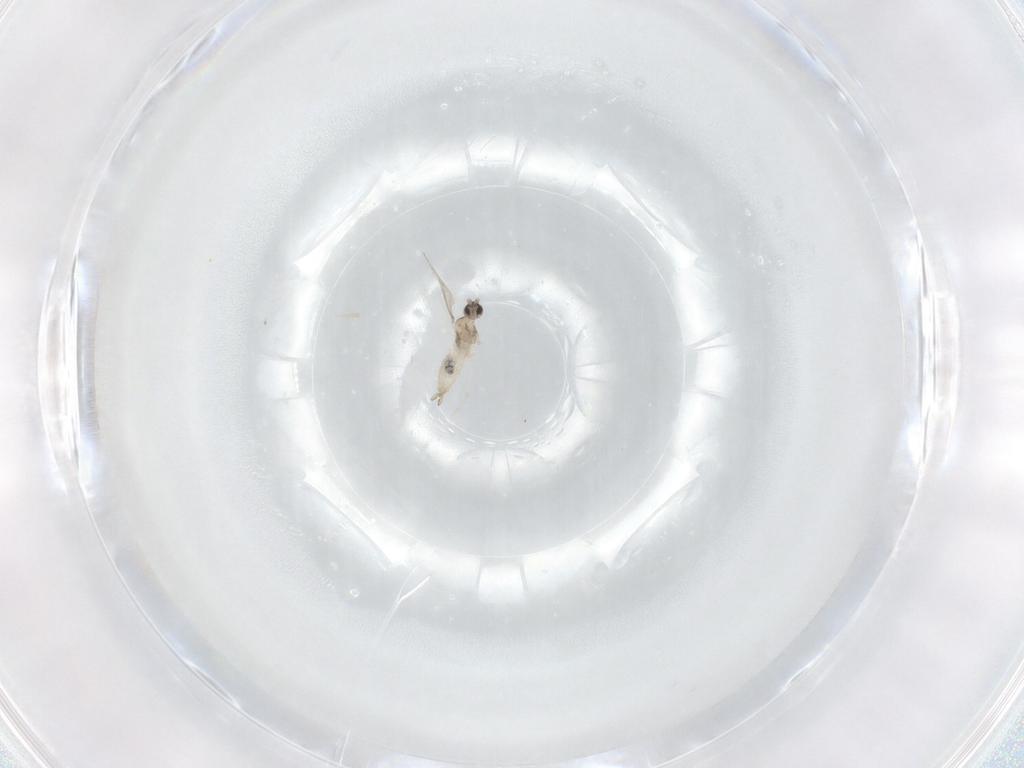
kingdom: Animalia
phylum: Arthropoda
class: Insecta
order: Diptera
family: Cecidomyiidae
